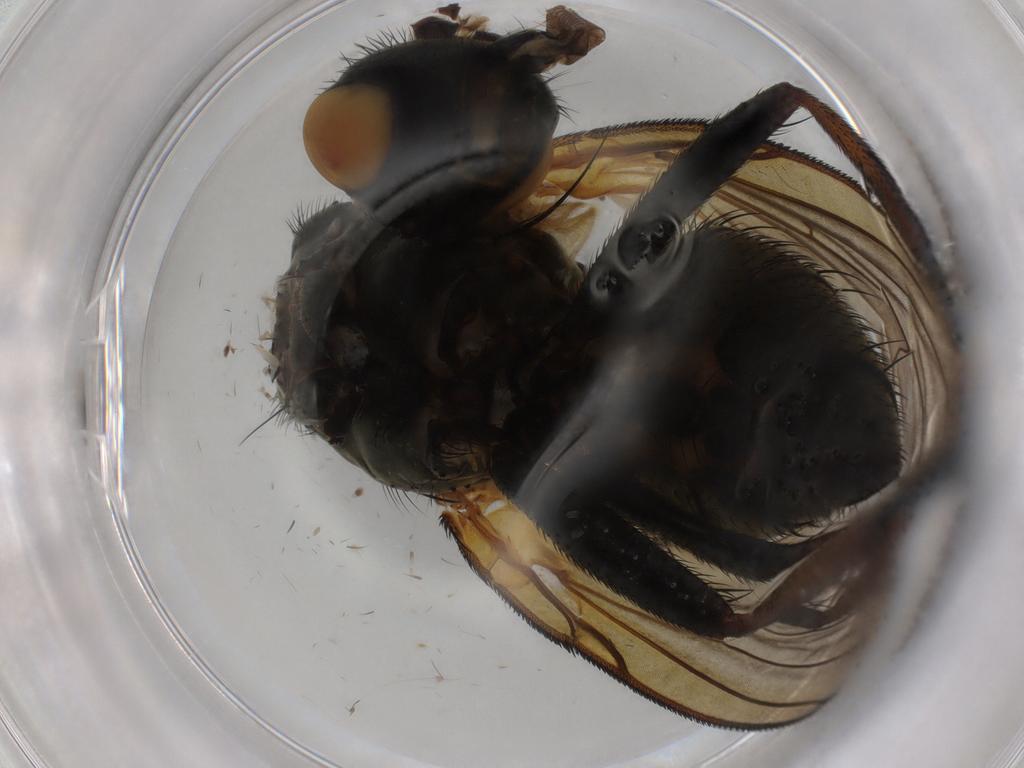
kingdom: Animalia
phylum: Arthropoda
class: Insecta
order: Diptera
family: Anthomyiidae
